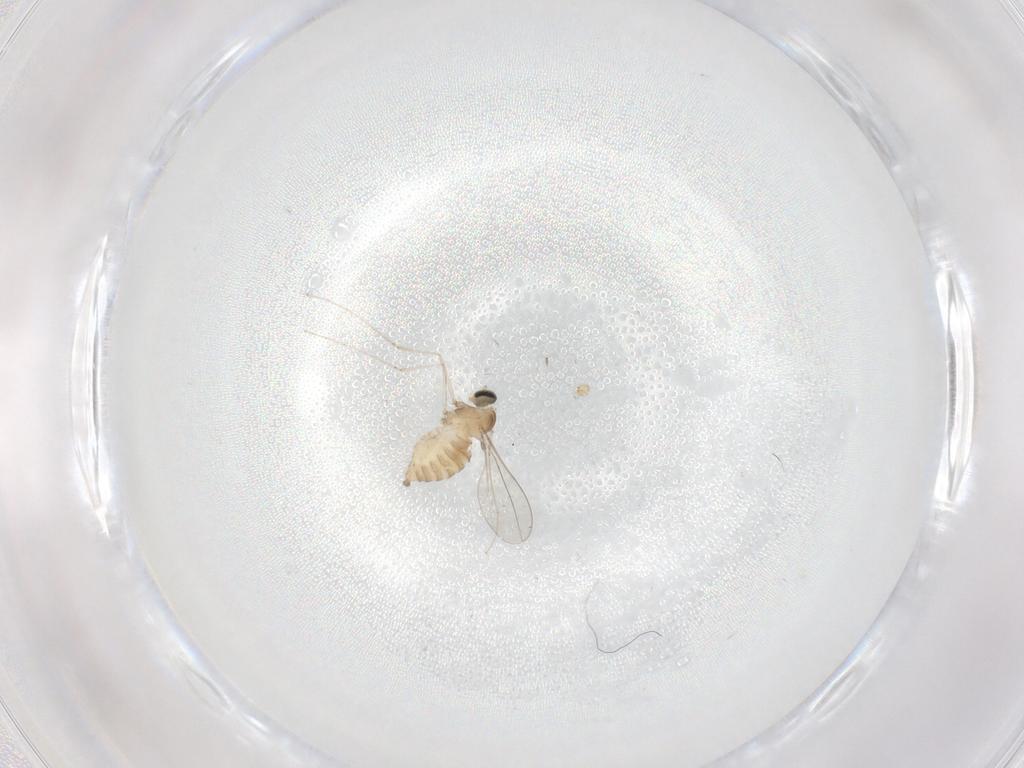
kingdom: Animalia
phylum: Arthropoda
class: Insecta
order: Diptera
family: Cecidomyiidae
